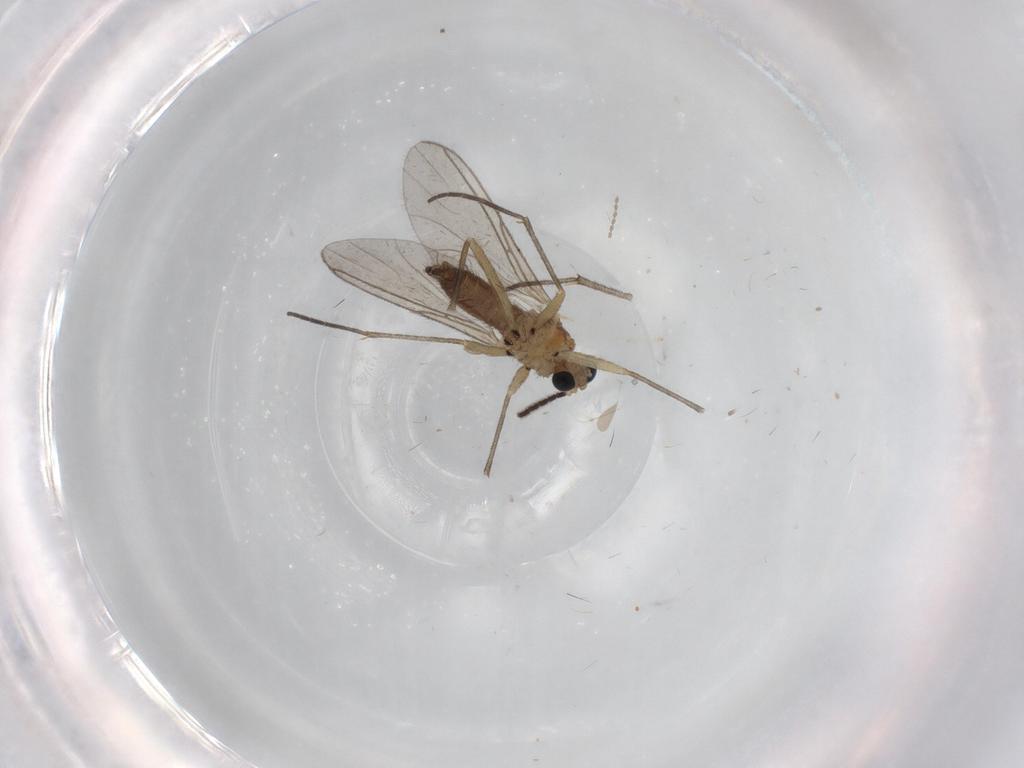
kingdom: Animalia
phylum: Arthropoda
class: Insecta
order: Diptera
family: Sciaridae
